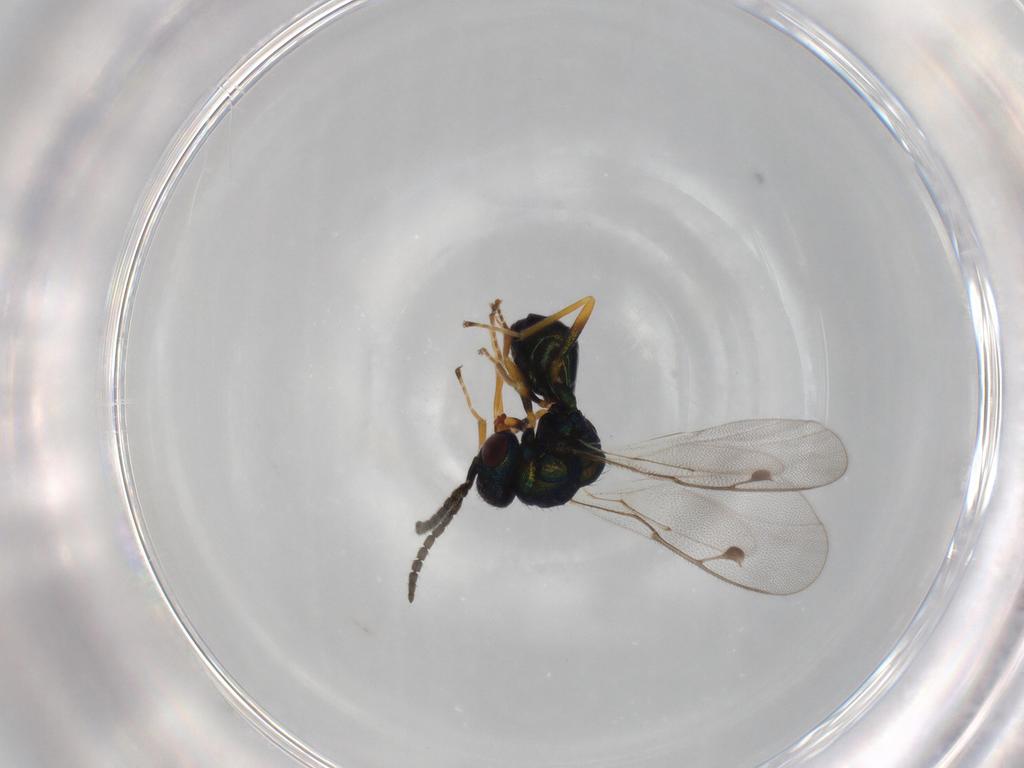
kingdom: Animalia
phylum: Arthropoda
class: Insecta
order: Hymenoptera
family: Pteromalidae
